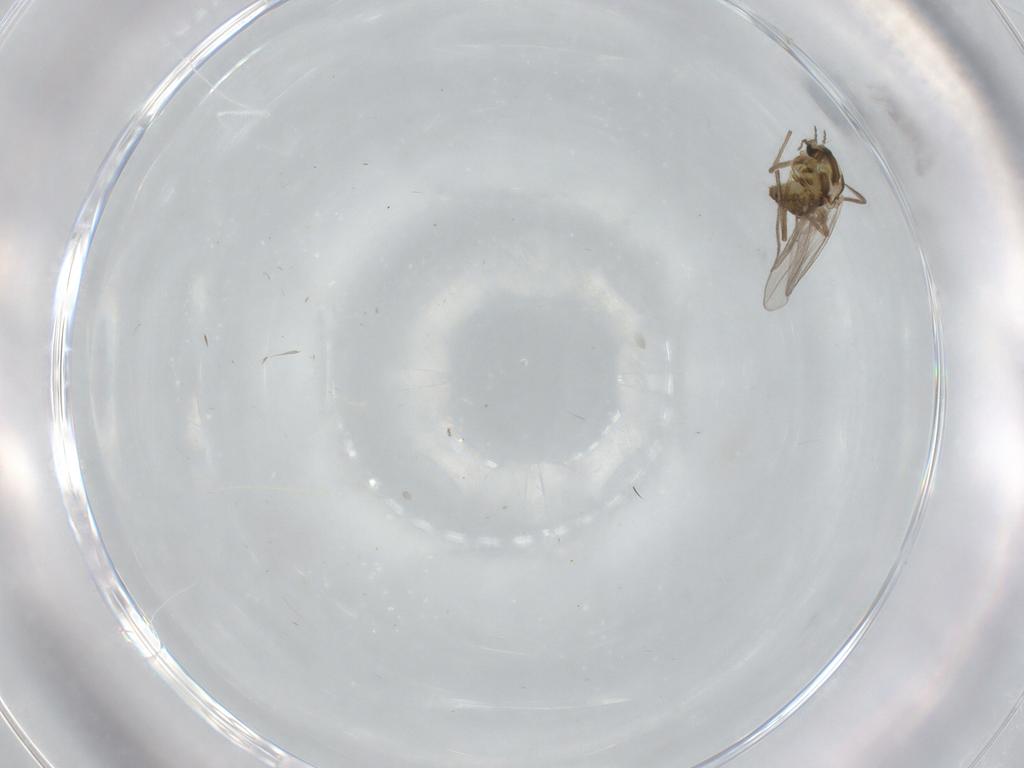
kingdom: Animalia
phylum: Arthropoda
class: Insecta
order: Diptera
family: Chironomidae
